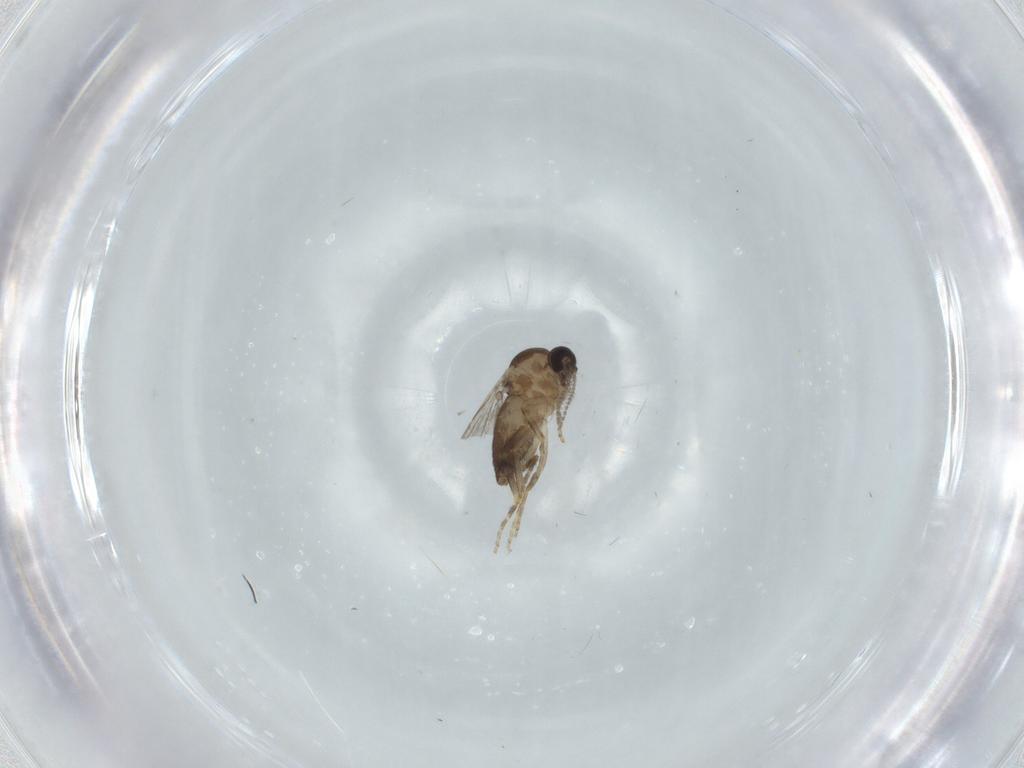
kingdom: Animalia
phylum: Arthropoda
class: Insecta
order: Diptera
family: Ceratopogonidae
